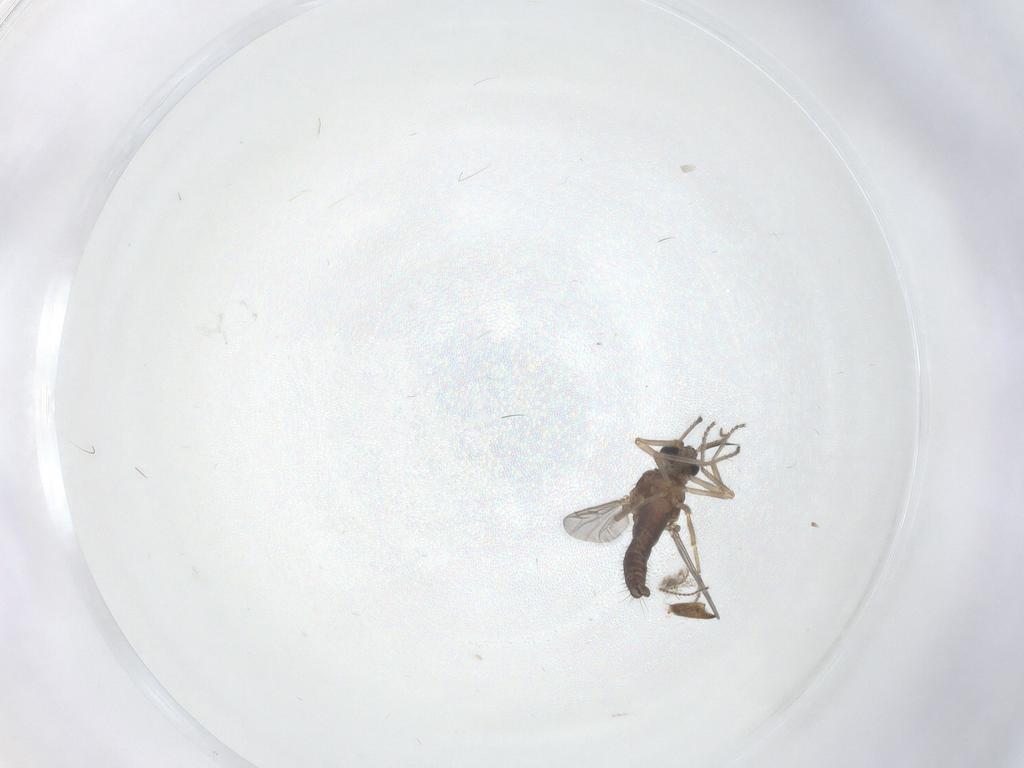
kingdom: Animalia
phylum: Arthropoda
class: Insecta
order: Diptera
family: Ceratopogonidae
